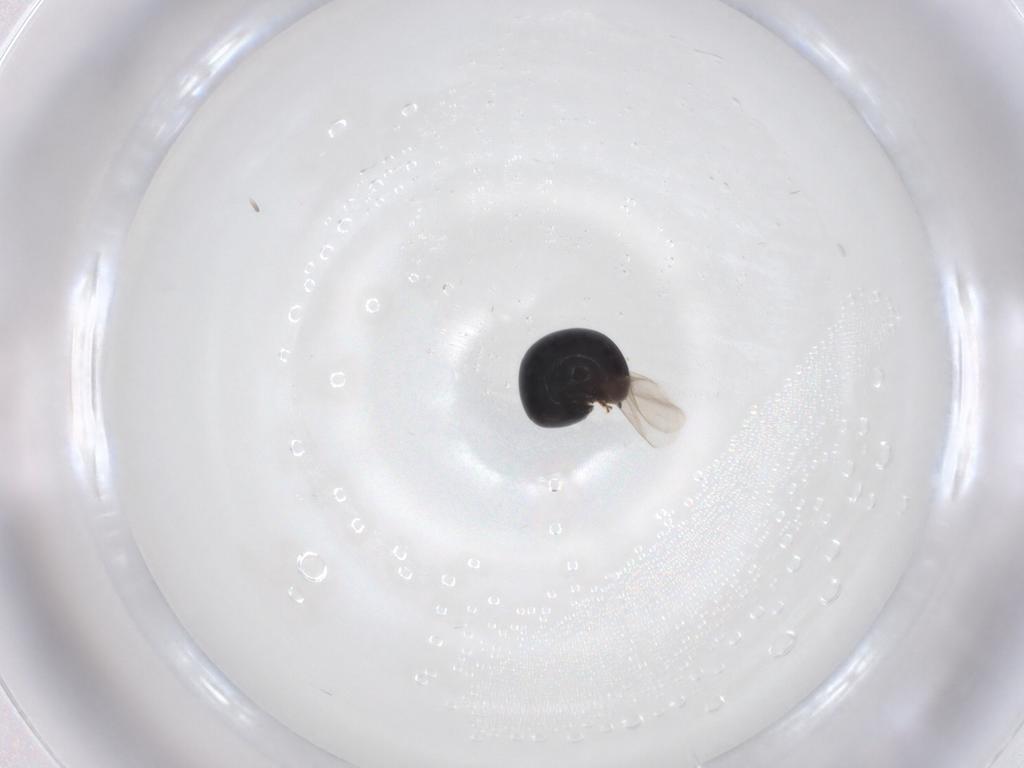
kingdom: Animalia
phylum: Arthropoda
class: Insecta
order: Coleoptera
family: Cybocephalidae
